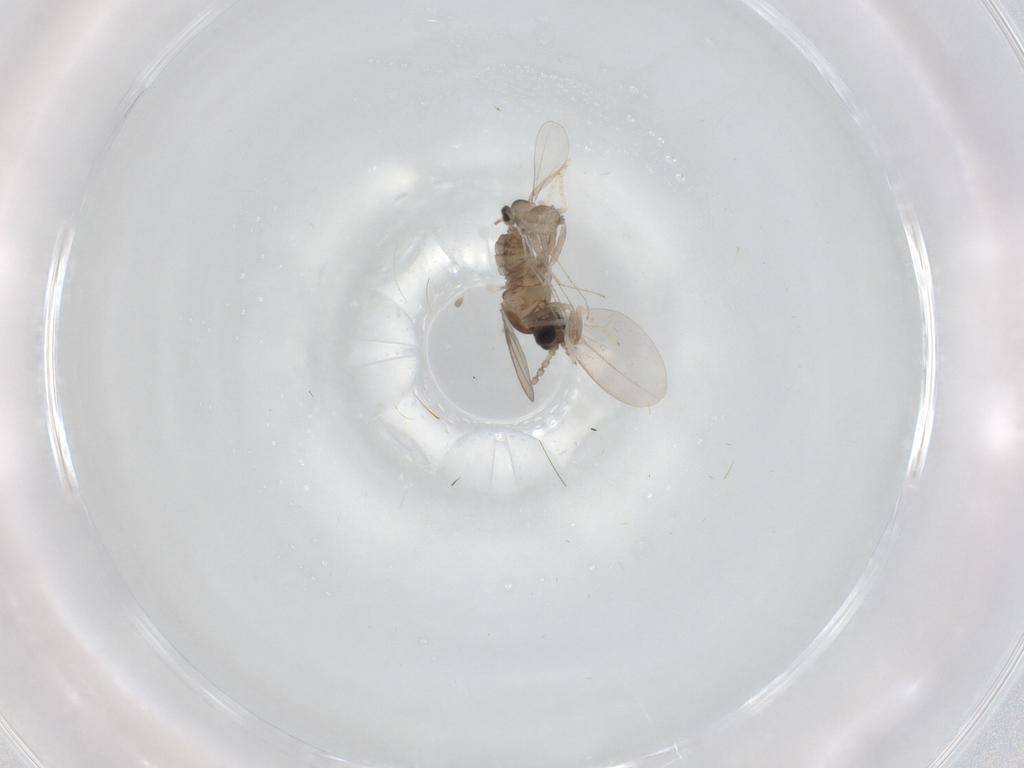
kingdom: Animalia
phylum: Arthropoda
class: Insecta
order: Diptera
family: Cecidomyiidae
